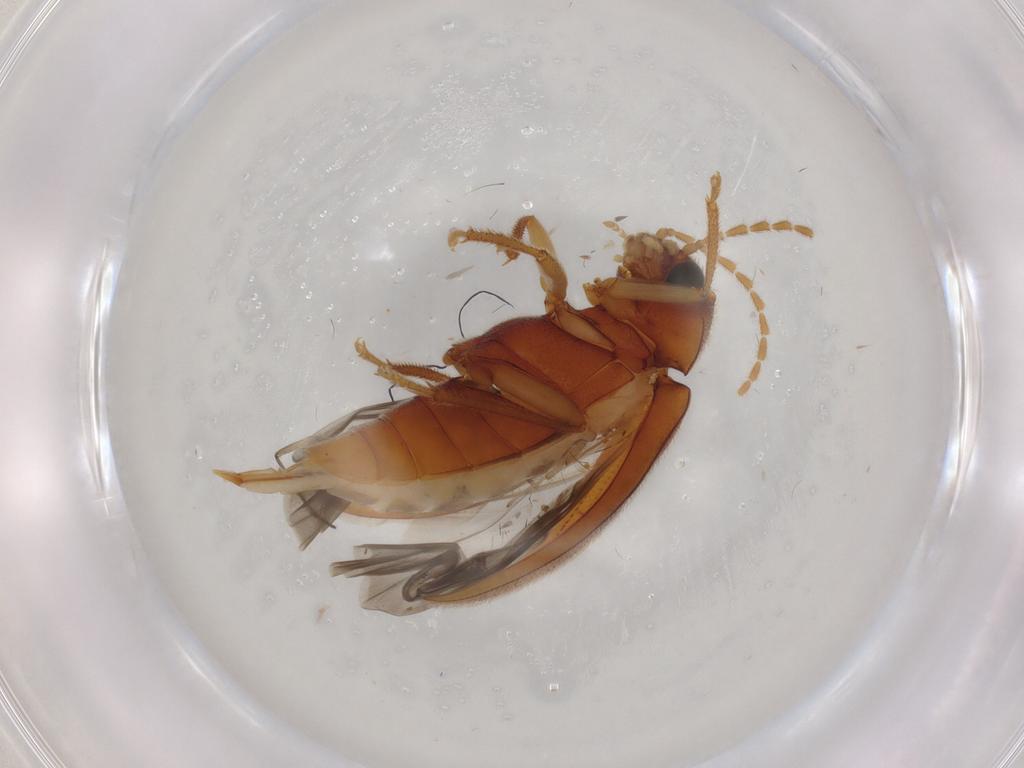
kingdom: Animalia
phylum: Arthropoda
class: Insecta
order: Coleoptera
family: Ptilodactylidae
